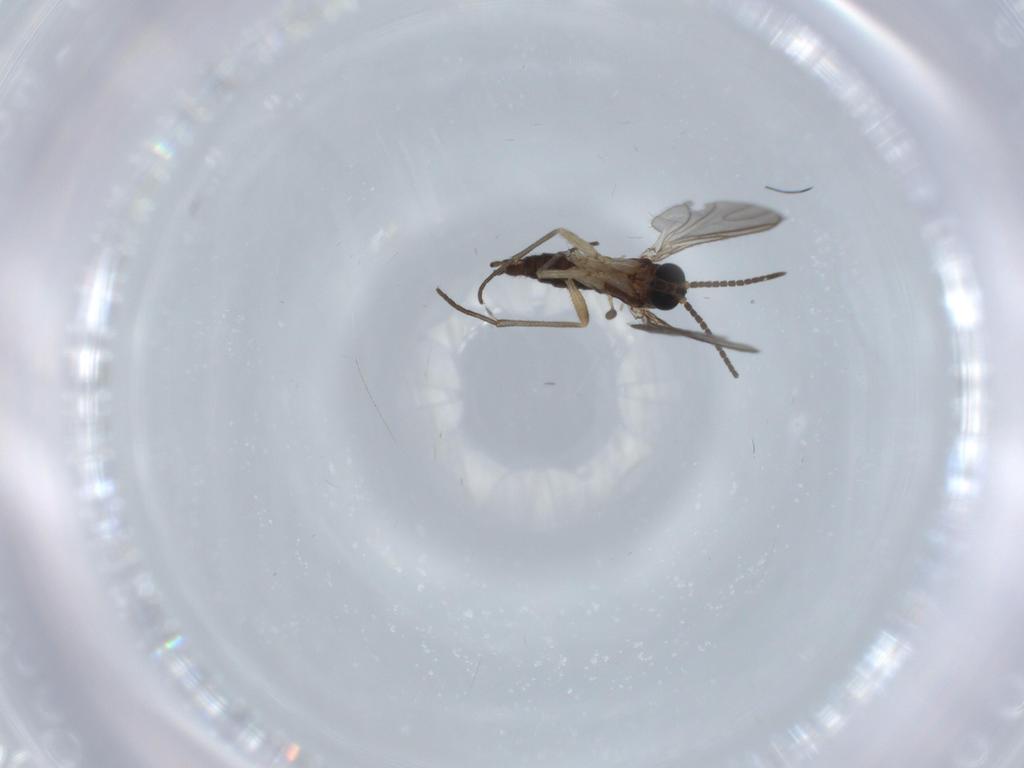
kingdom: Animalia
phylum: Arthropoda
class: Insecta
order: Diptera
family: Sciaridae
